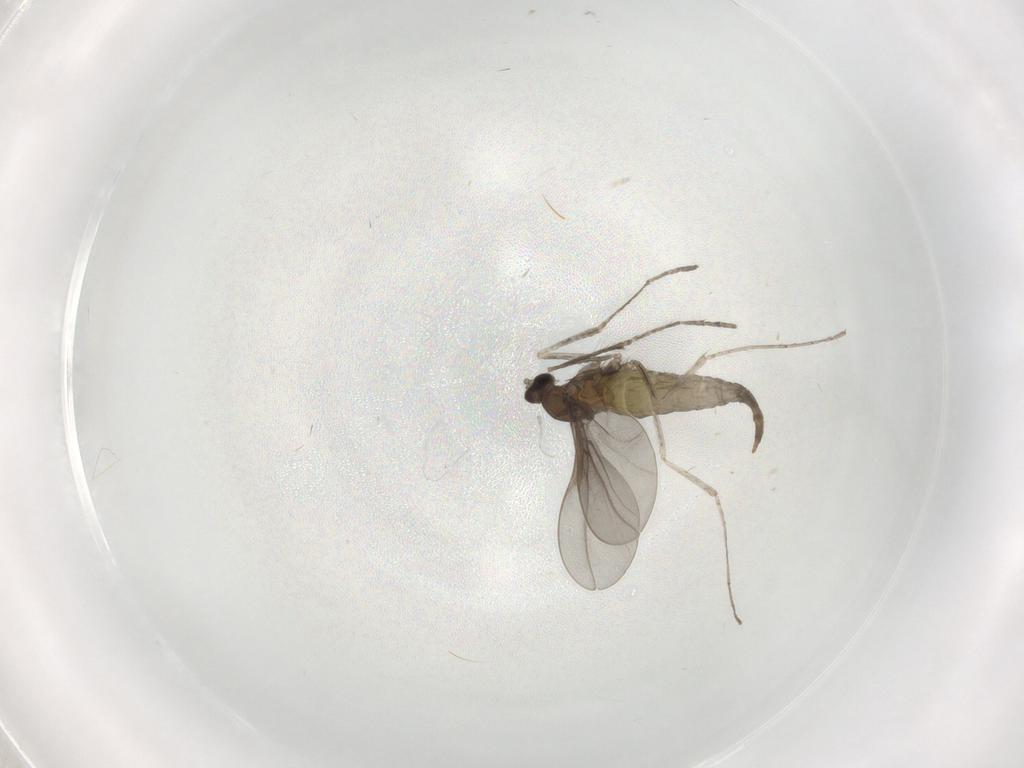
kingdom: Animalia
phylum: Arthropoda
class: Insecta
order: Diptera
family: Cecidomyiidae
